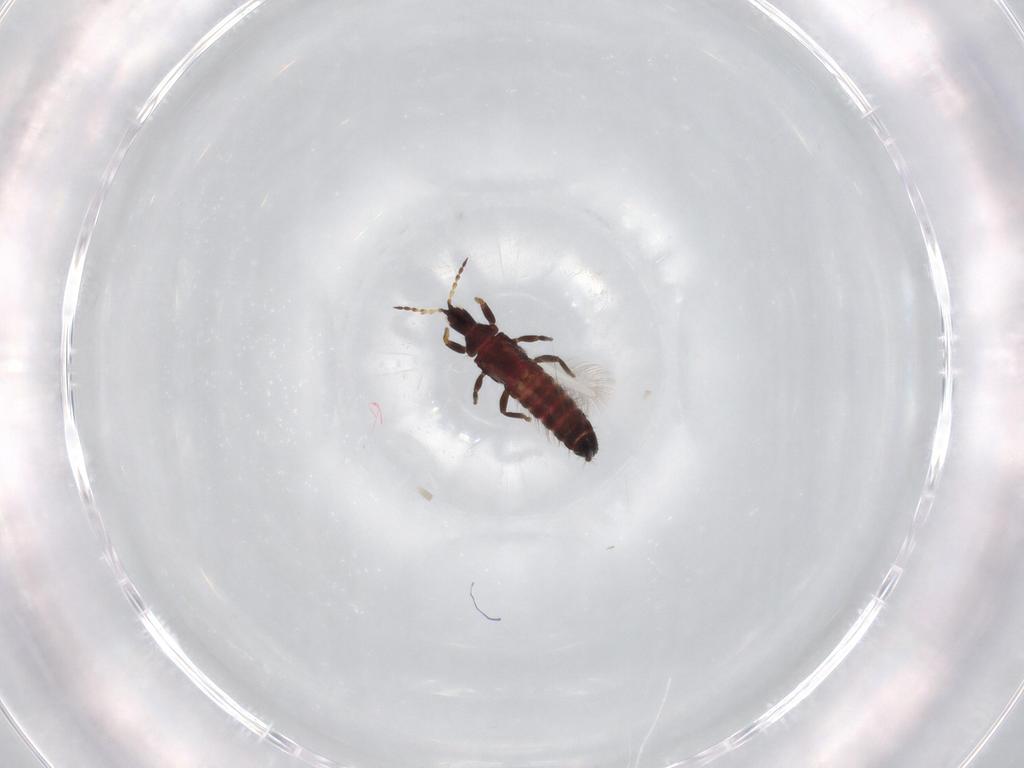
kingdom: Animalia
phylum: Arthropoda
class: Insecta
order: Thysanoptera
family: Phlaeothripidae
